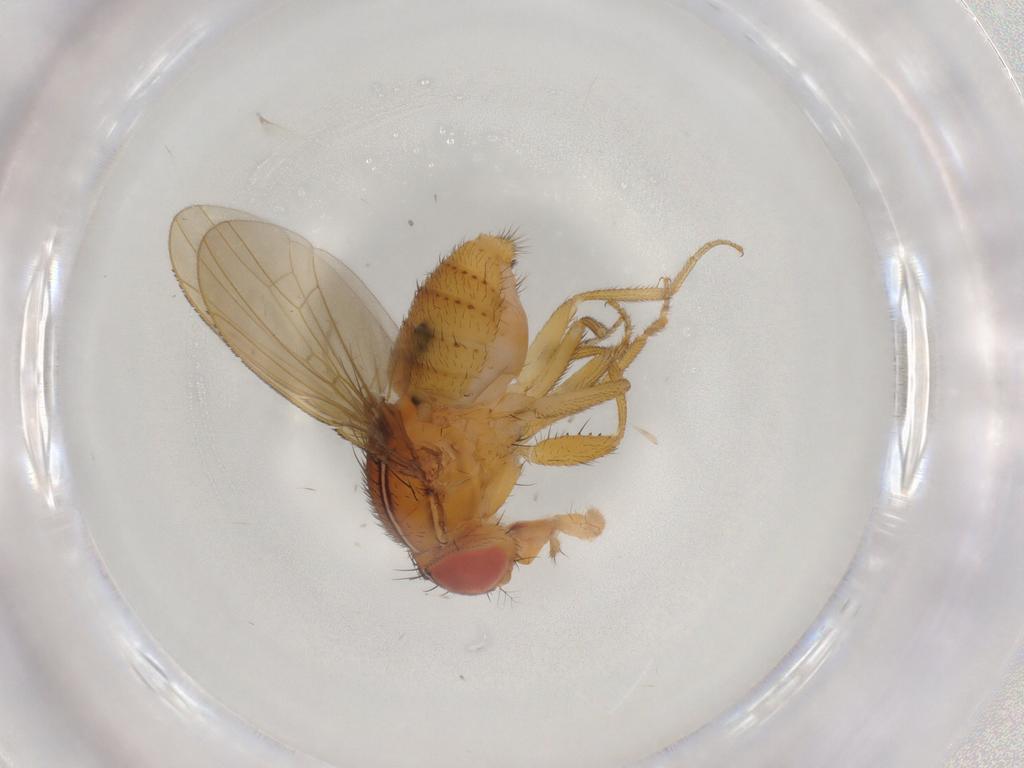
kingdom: Animalia
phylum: Arthropoda
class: Insecta
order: Diptera
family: Drosophilidae
